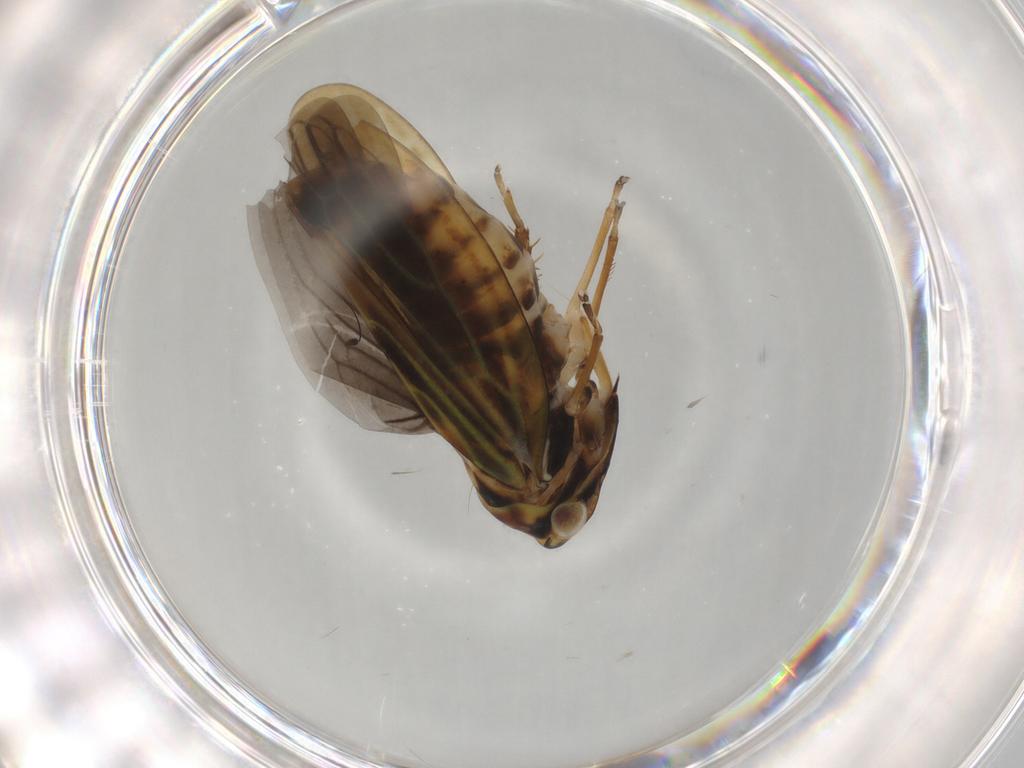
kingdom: Animalia
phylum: Arthropoda
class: Insecta
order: Hemiptera
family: Cicadellidae
